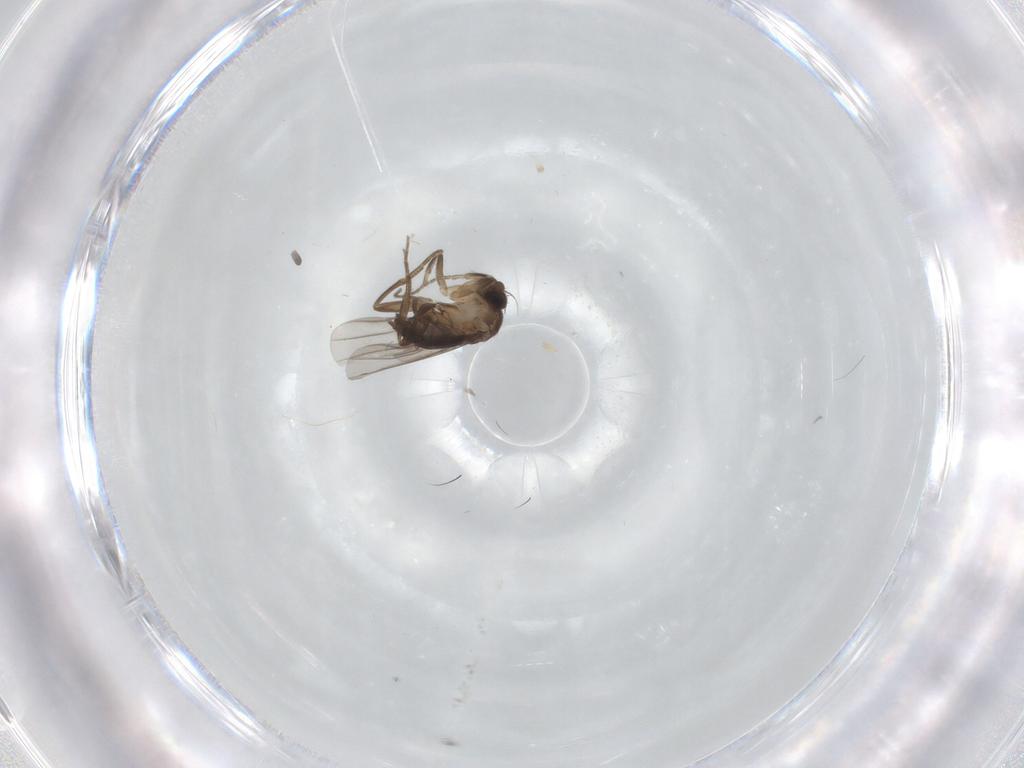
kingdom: Animalia
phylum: Arthropoda
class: Insecta
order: Diptera
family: Phoridae
